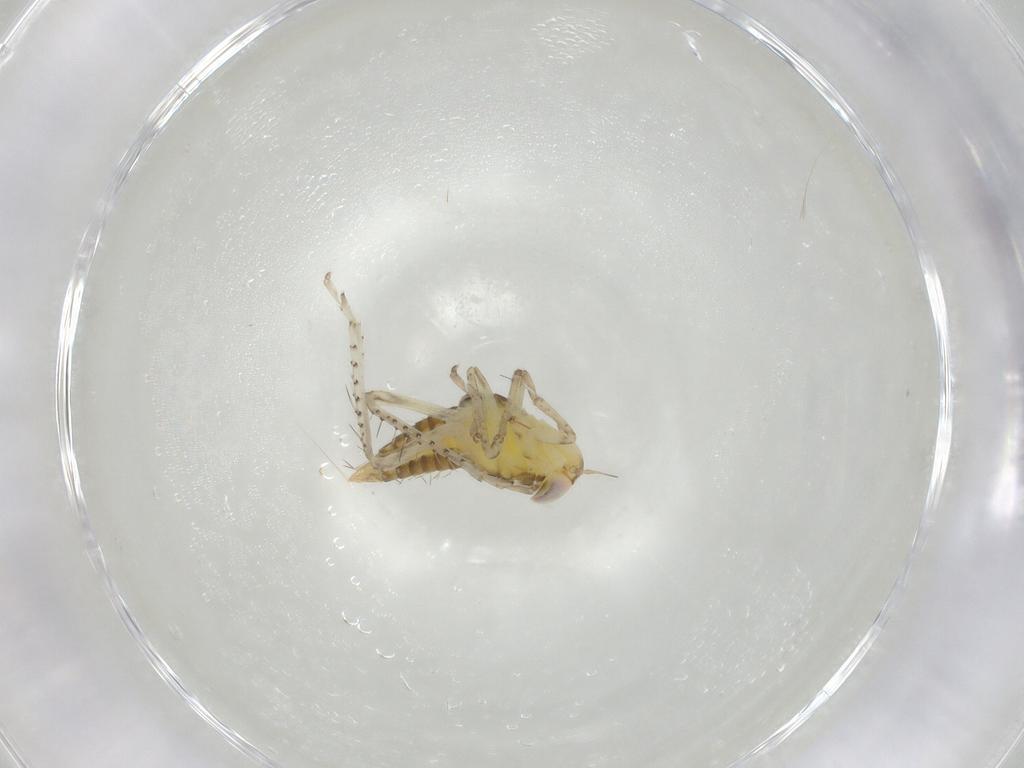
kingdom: Animalia
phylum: Arthropoda
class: Insecta
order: Hemiptera
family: Cicadellidae
